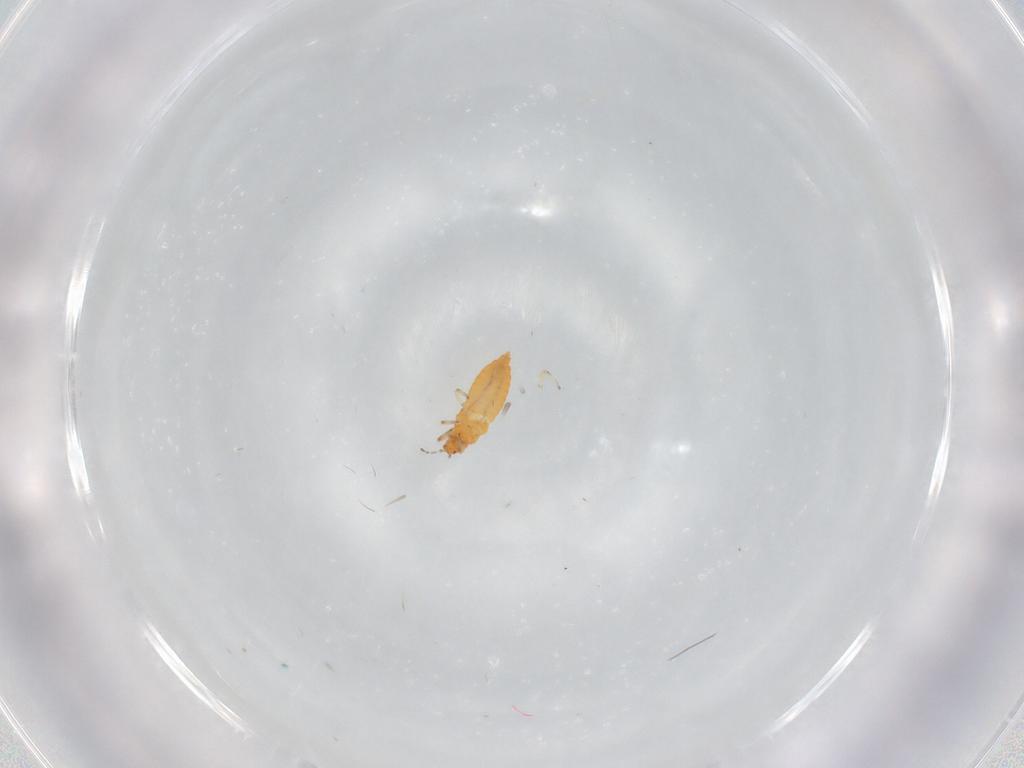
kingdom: Animalia
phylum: Arthropoda
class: Insecta
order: Thysanoptera
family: Aeolothripidae
